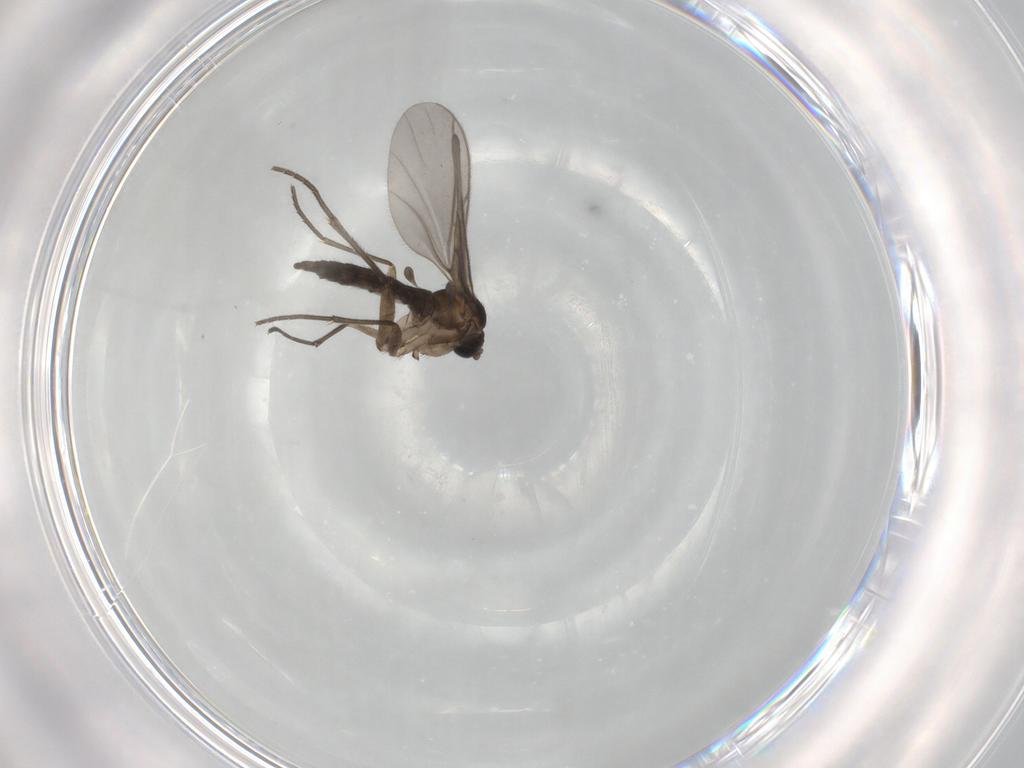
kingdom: Animalia
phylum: Arthropoda
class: Insecta
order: Diptera
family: Sciaridae
